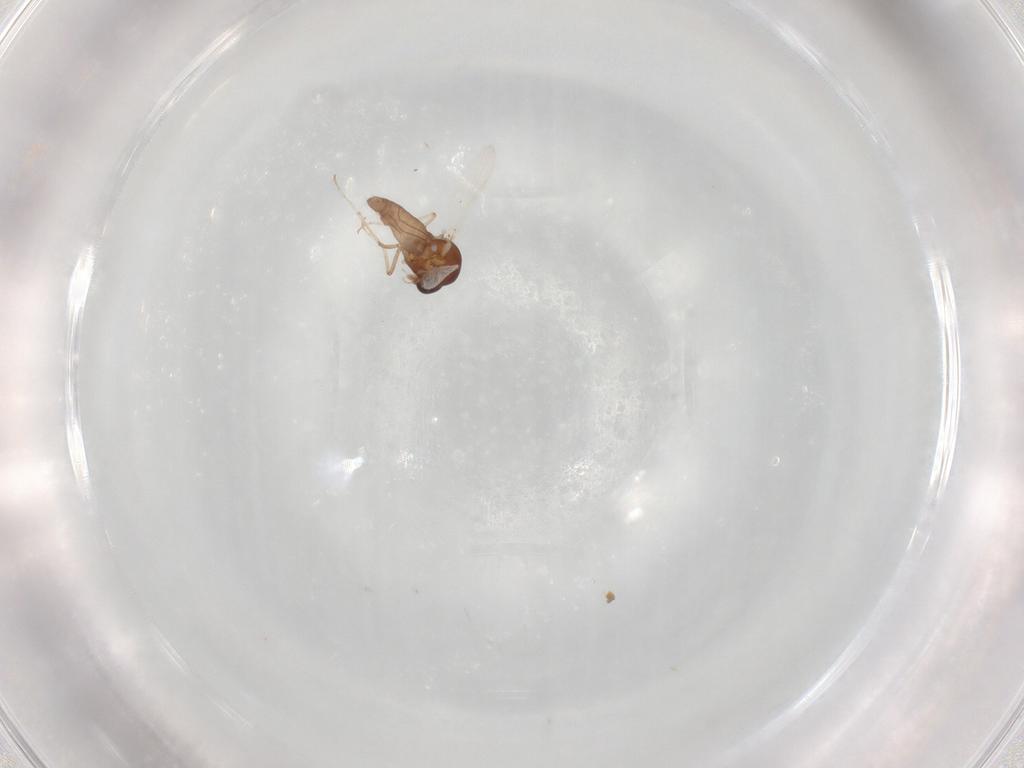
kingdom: Animalia
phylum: Arthropoda
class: Insecta
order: Diptera
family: Ceratopogonidae
